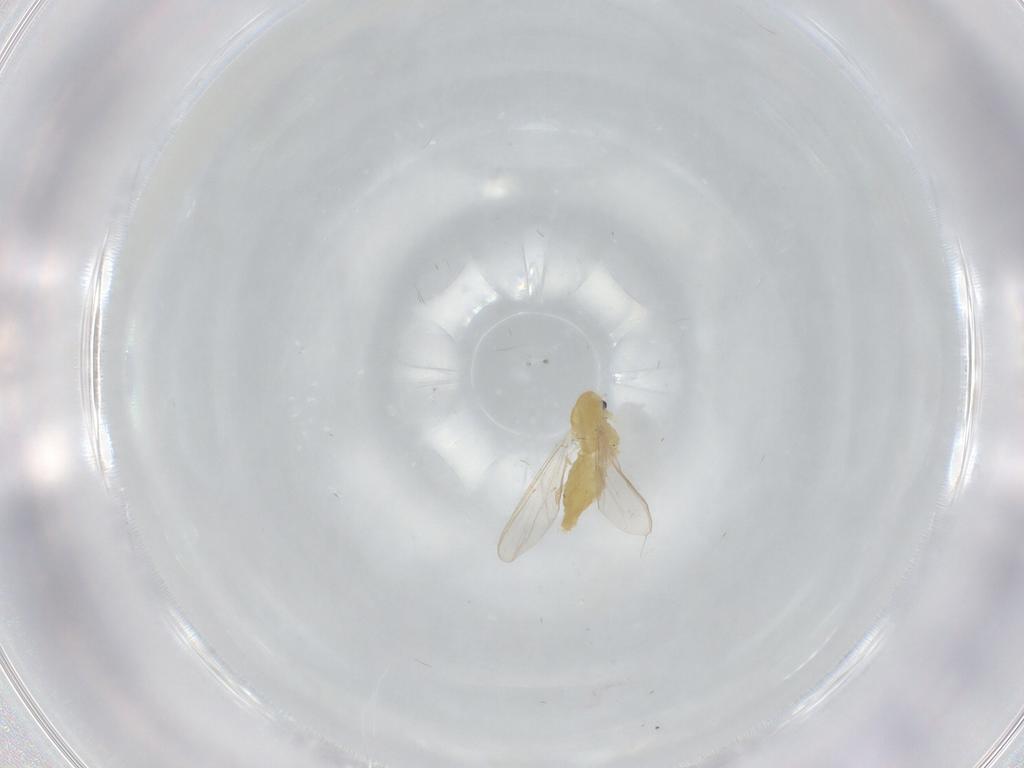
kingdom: Animalia
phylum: Arthropoda
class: Insecta
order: Diptera
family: Chironomidae
